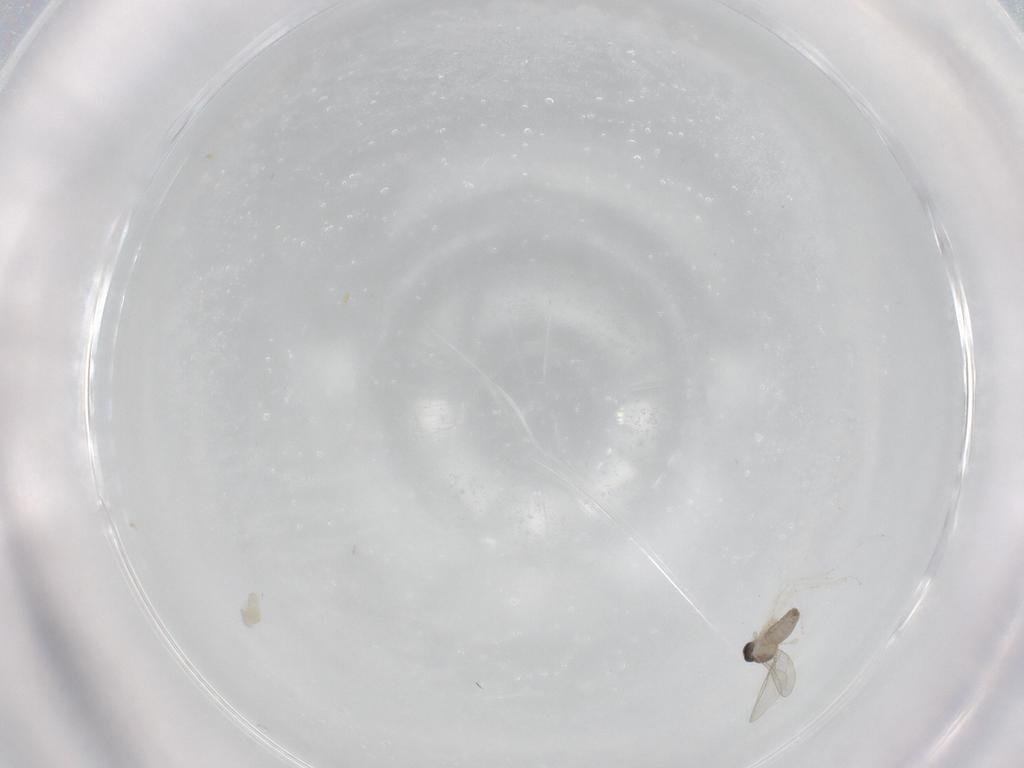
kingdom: Animalia
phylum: Arthropoda
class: Insecta
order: Diptera
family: Cecidomyiidae
